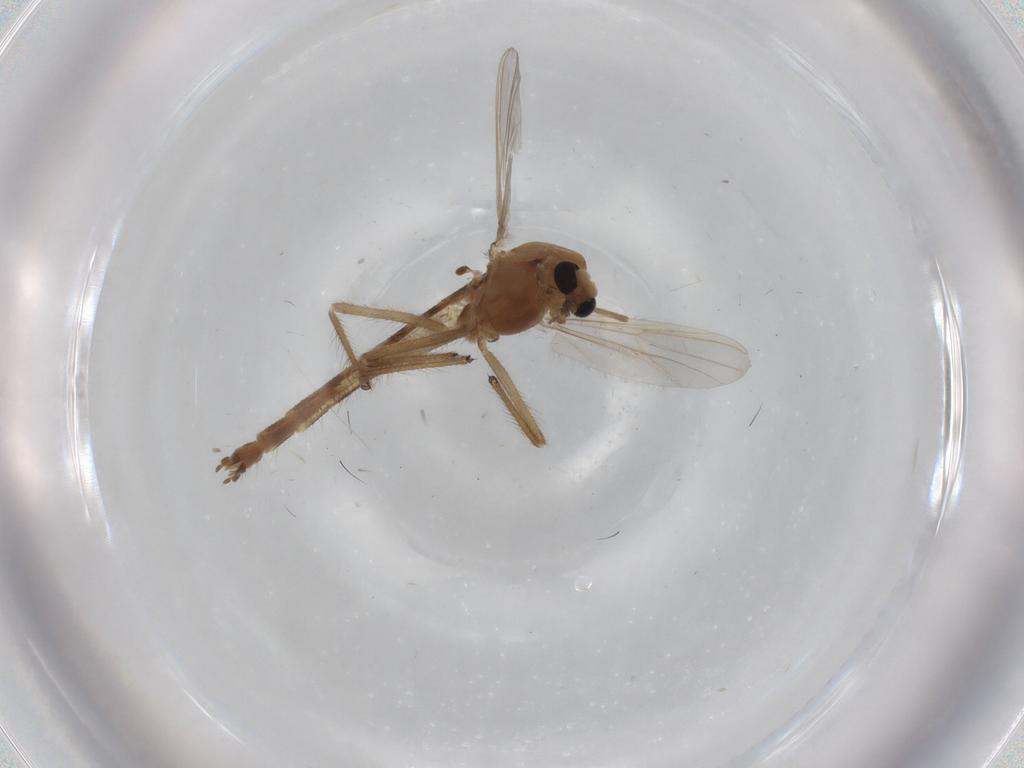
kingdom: Animalia
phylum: Arthropoda
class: Insecta
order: Diptera
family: Chironomidae
